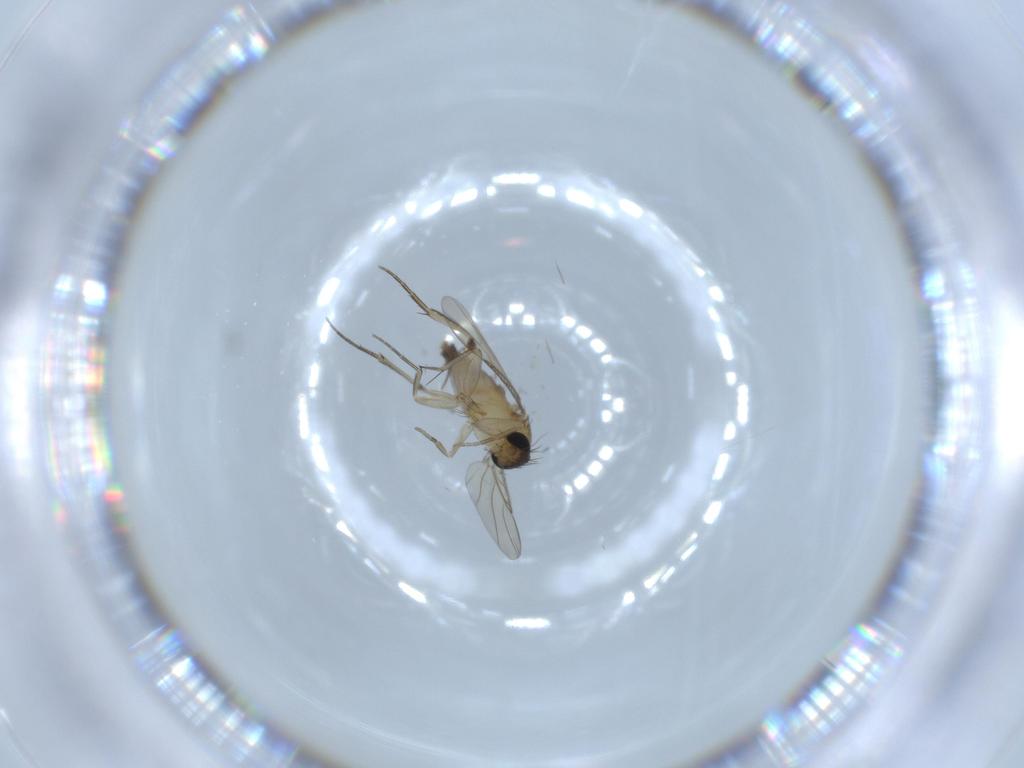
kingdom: Animalia
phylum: Arthropoda
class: Insecta
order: Diptera
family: Phoridae
